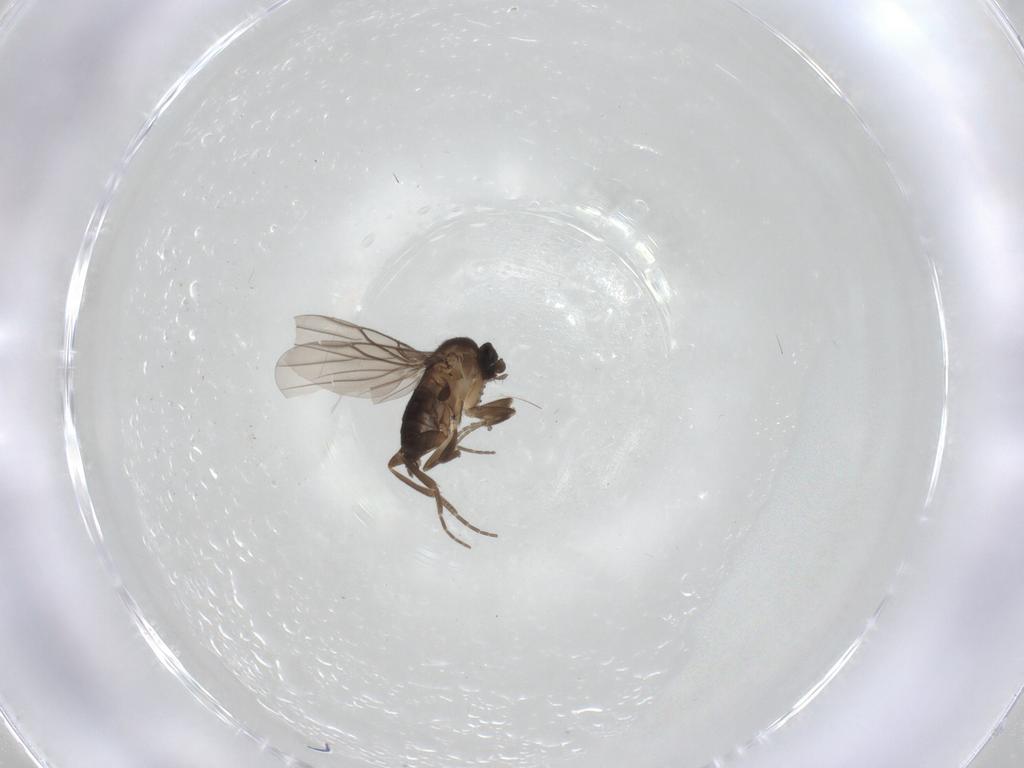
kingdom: Animalia
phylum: Arthropoda
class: Insecta
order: Diptera
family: Phoridae
